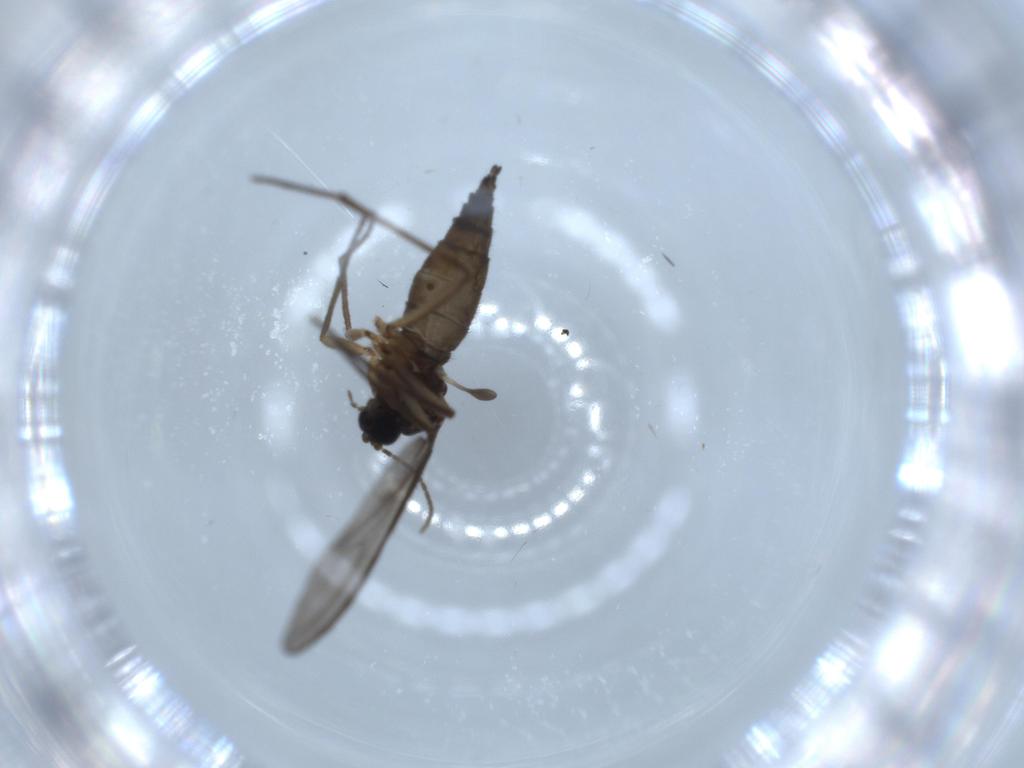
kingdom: Animalia
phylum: Arthropoda
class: Insecta
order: Diptera
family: Sciaridae
